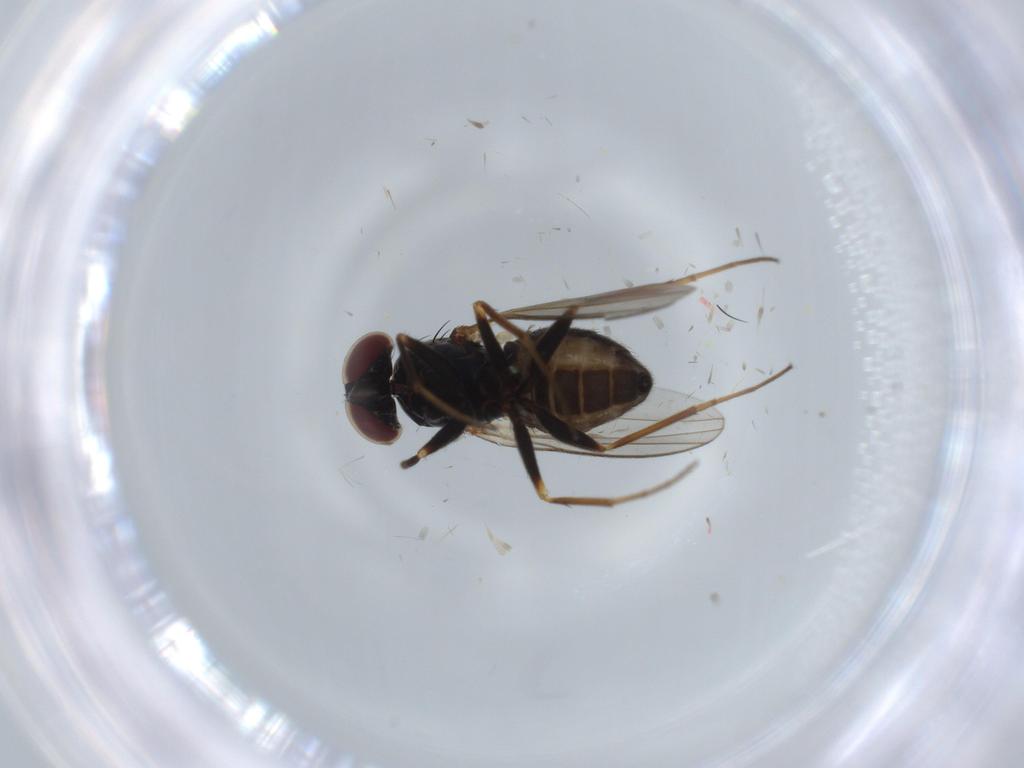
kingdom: Animalia
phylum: Arthropoda
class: Insecta
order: Diptera
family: Dolichopodidae
